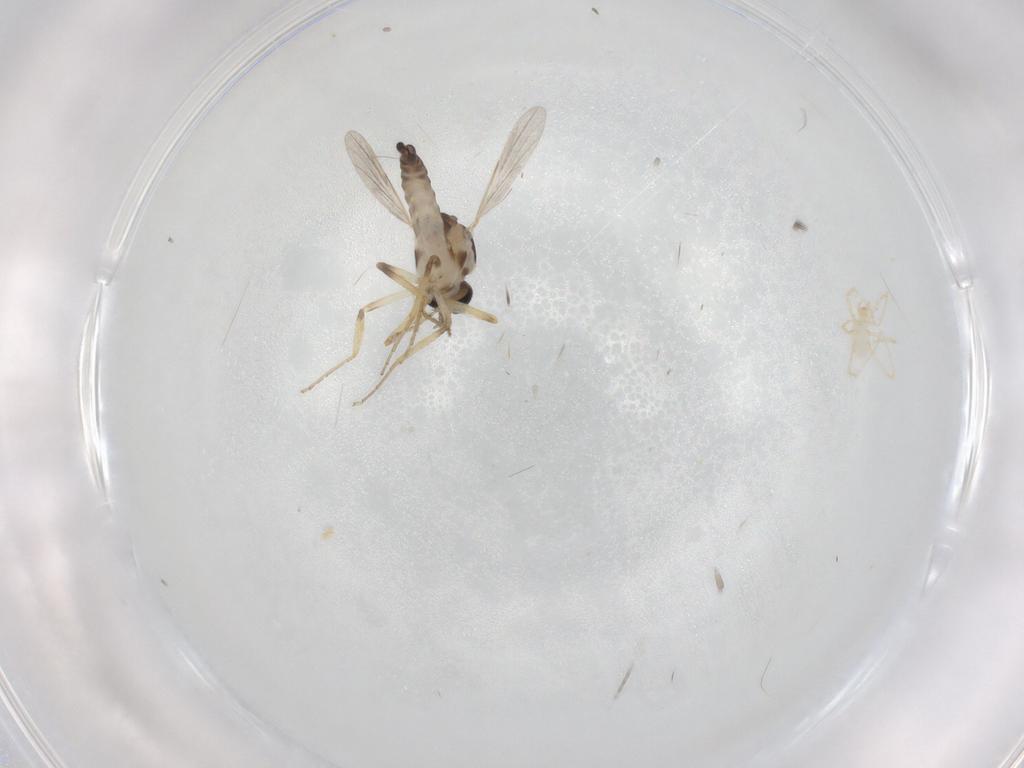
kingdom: Animalia
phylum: Arthropoda
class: Insecta
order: Diptera
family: Ceratopogonidae
